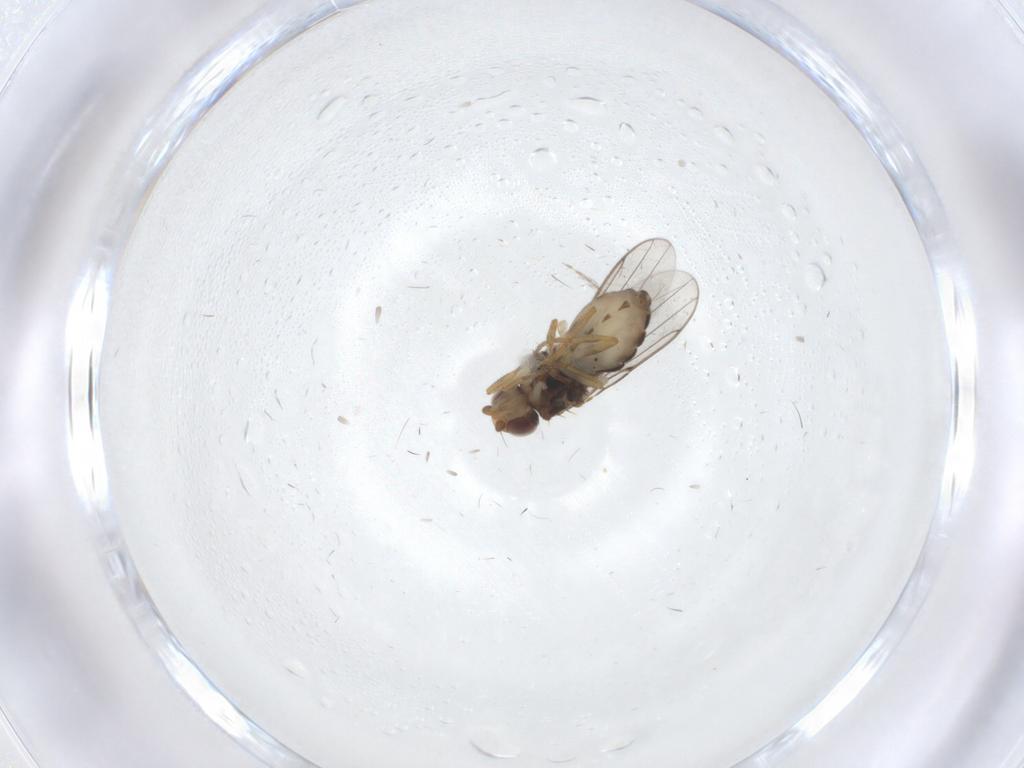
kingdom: Animalia
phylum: Arthropoda
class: Insecta
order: Diptera
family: Chloropidae
